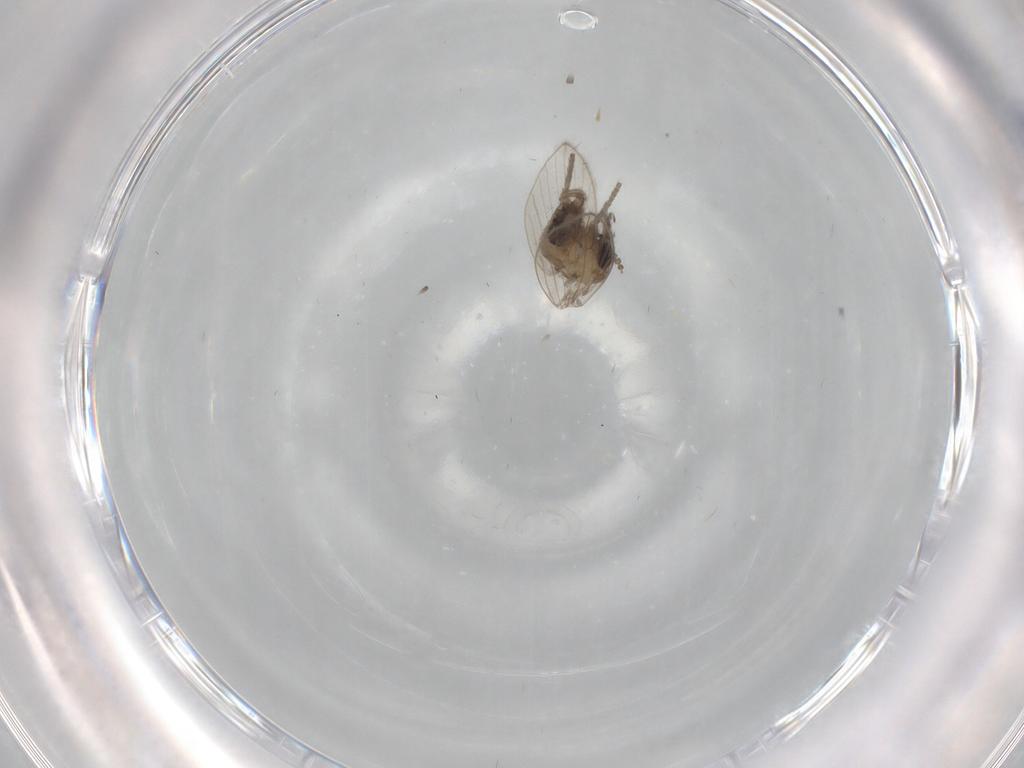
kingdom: Animalia
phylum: Arthropoda
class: Insecta
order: Diptera
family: Psychodidae
